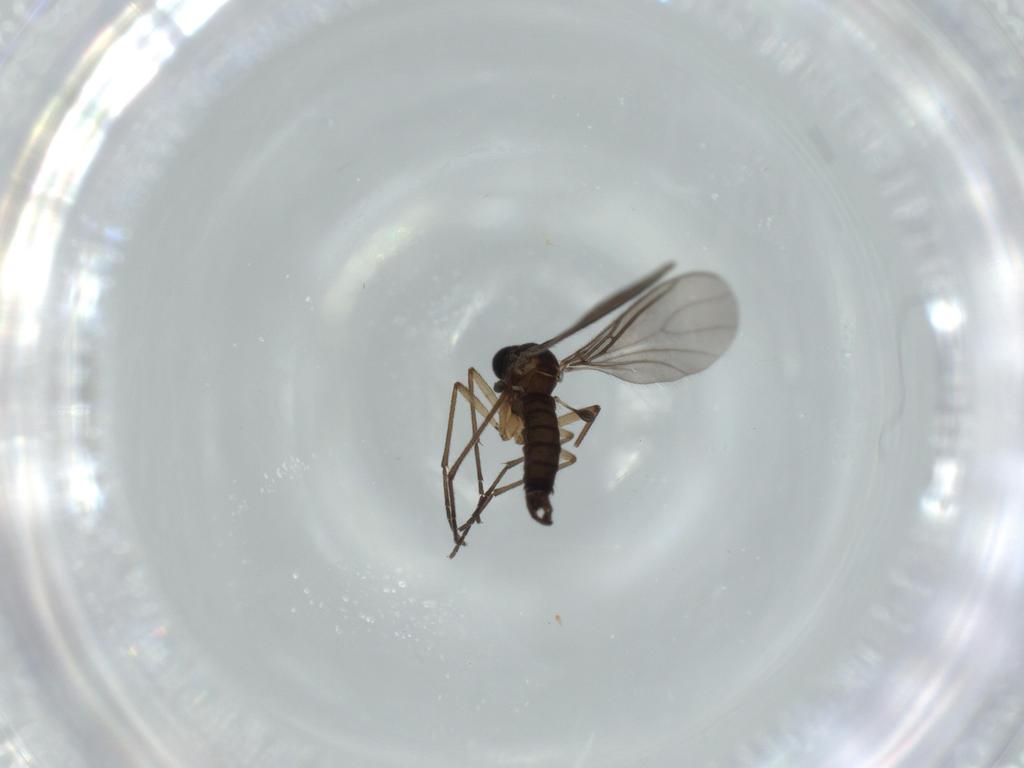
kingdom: Animalia
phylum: Arthropoda
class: Insecta
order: Diptera
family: Sciaridae
